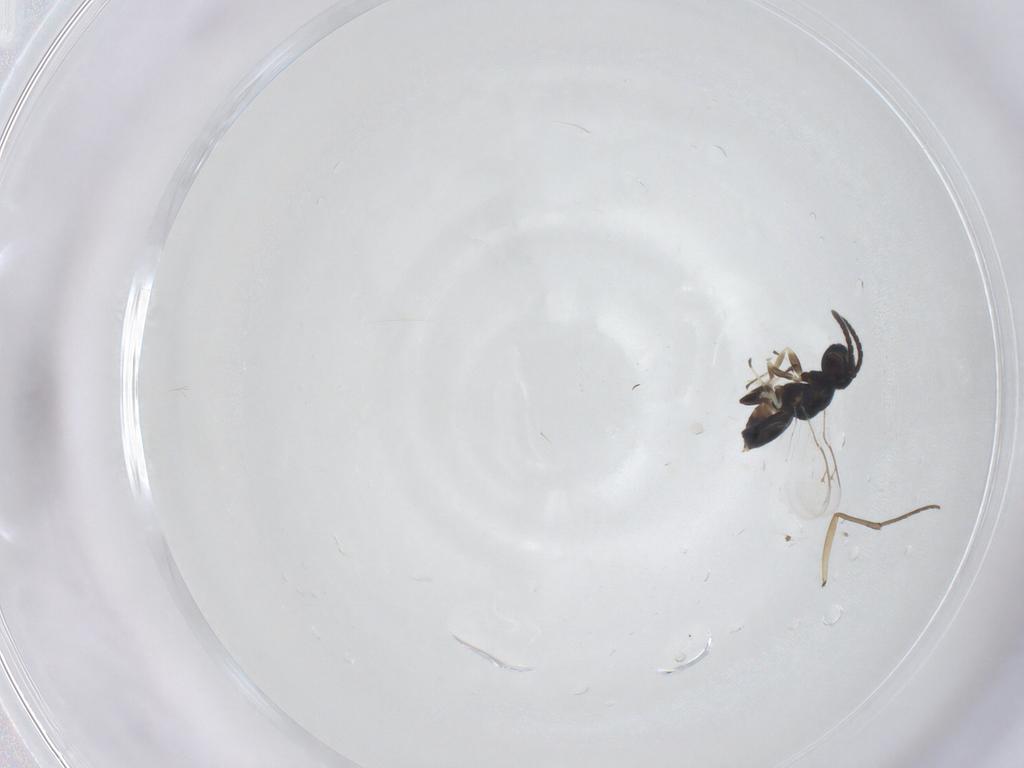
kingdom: Animalia
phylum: Arthropoda
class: Insecta
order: Hymenoptera
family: Eupelmidae
